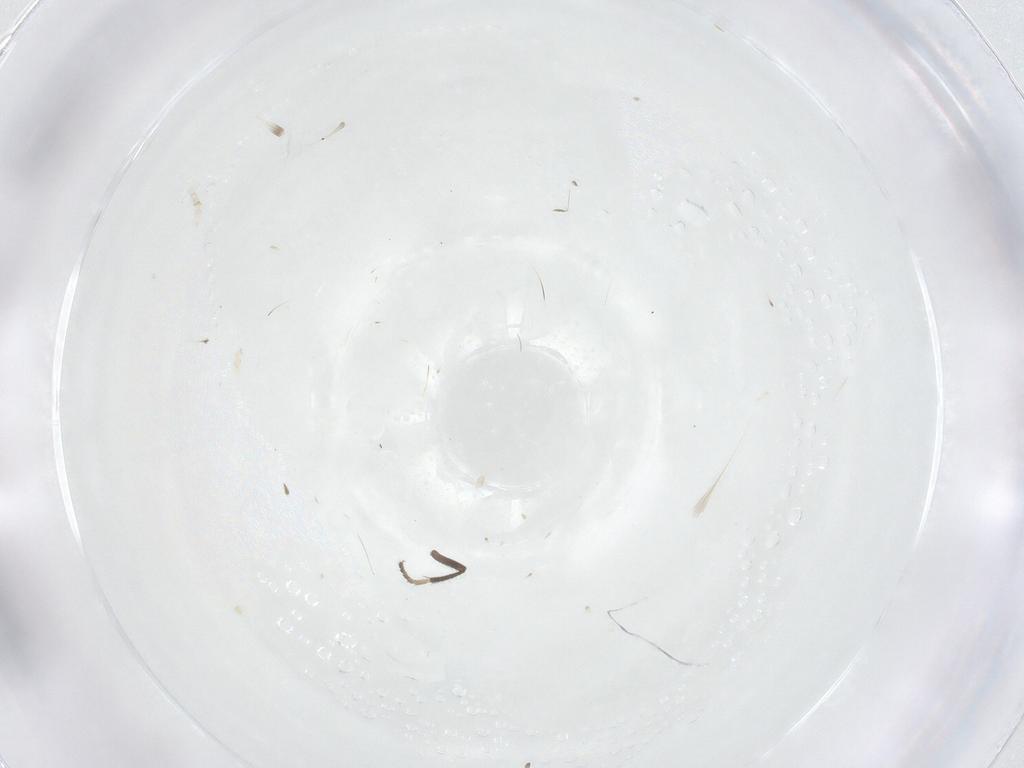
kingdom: Animalia
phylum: Arthropoda
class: Insecta
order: Diptera
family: Milichiidae
